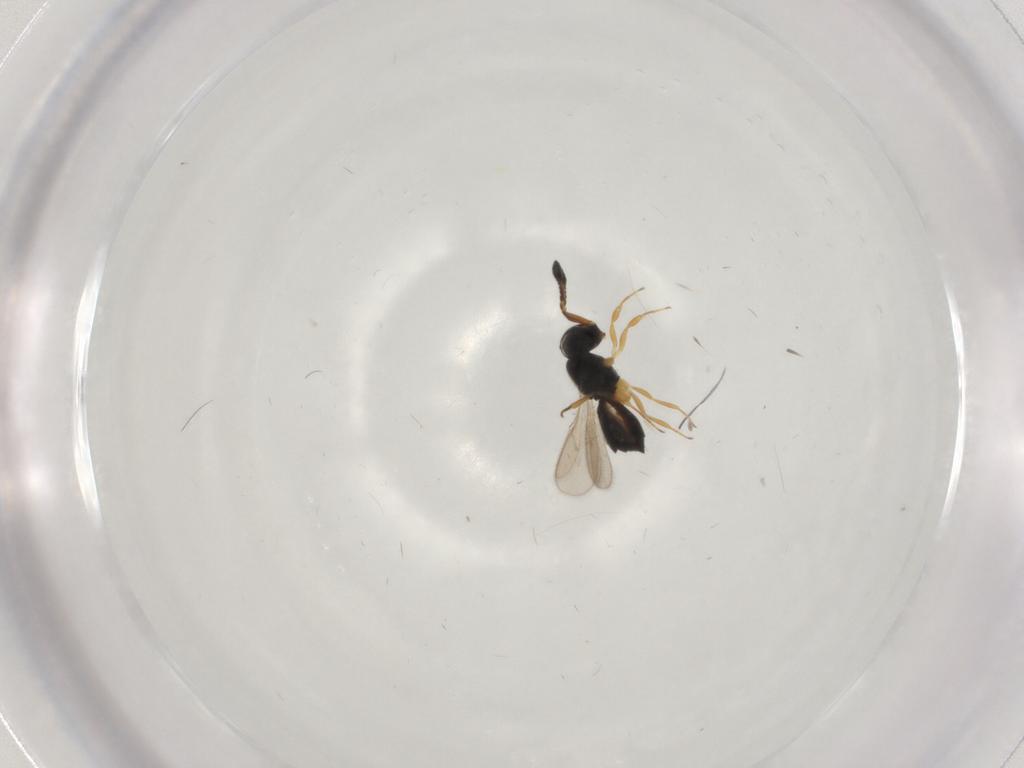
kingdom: Animalia
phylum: Arthropoda
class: Insecta
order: Hymenoptera
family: Scelionidae
